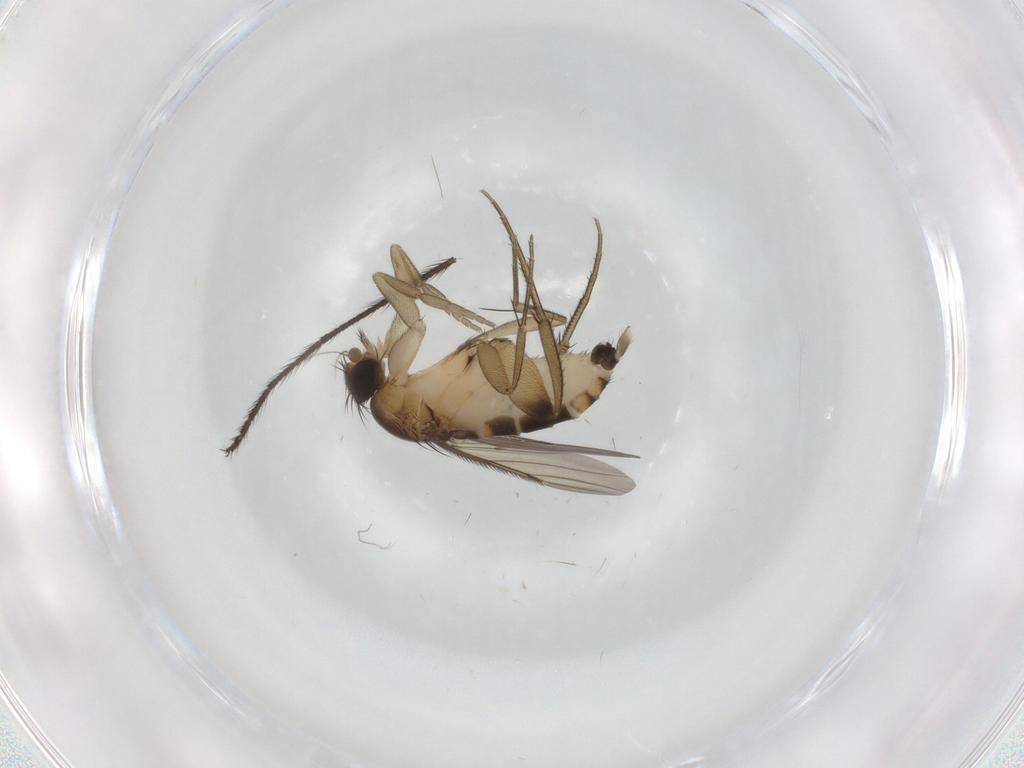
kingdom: Animalia
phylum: Arthropoda
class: Insecta
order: Diptera
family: Phoridae
